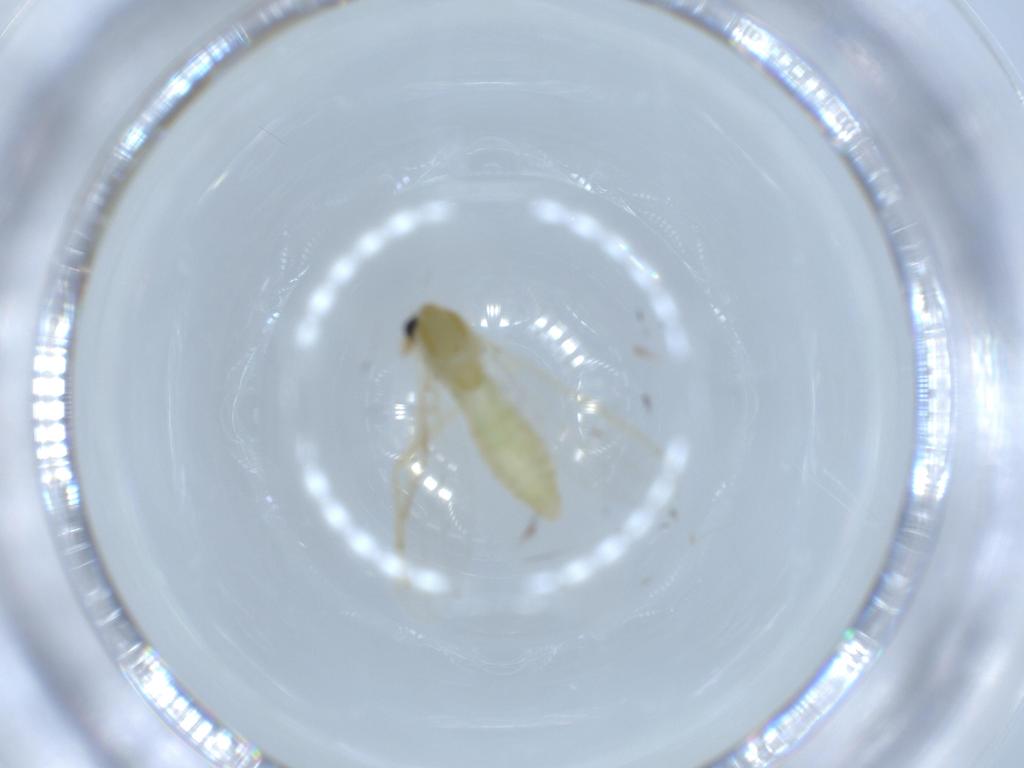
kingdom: Animalia
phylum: Arthropoda
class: Insecta
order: Diptera
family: Chironomidae
